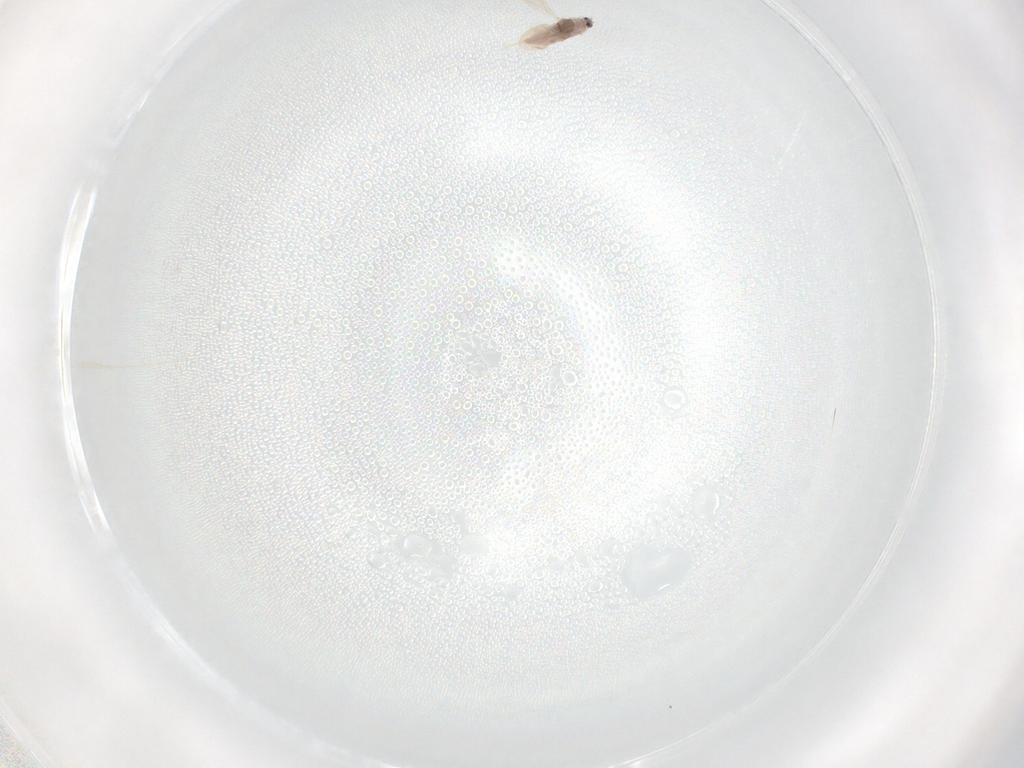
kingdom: Animalia
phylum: Arthropoda
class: Insecta
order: Hemiptera
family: Diaspididae
